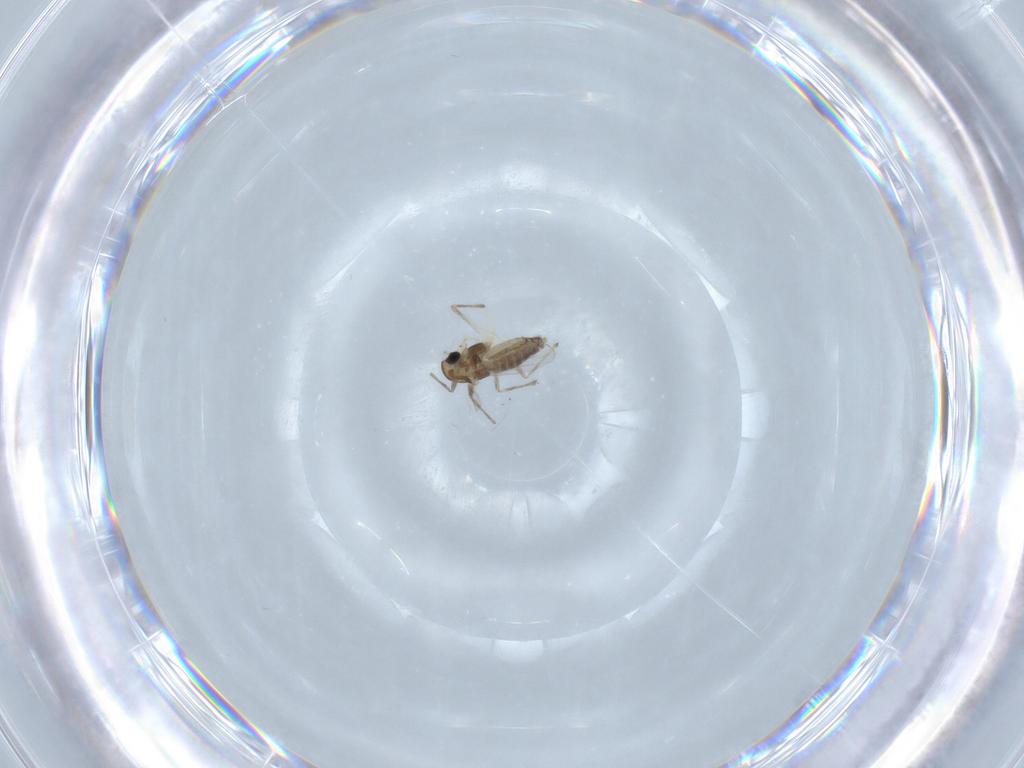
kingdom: Animalia
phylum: Arthropoda
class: Insecta
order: Diptera
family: Chironomidae
